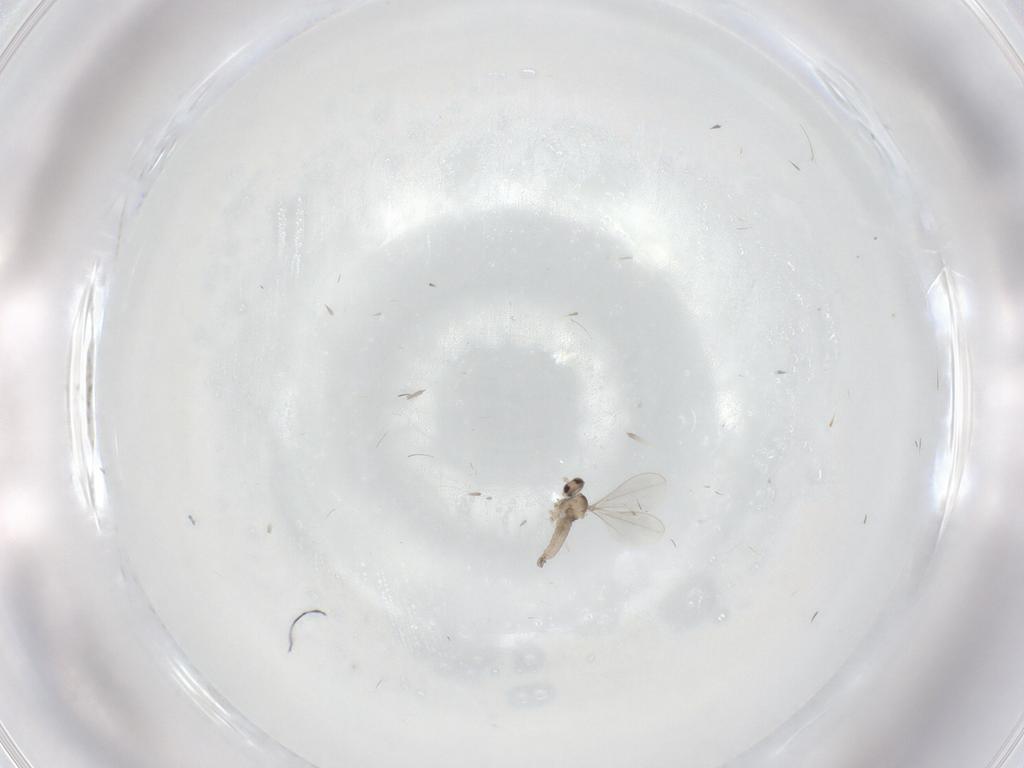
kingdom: Animalia
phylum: Arthropoda
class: Insecta
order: Diptera
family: Cecidomyiidae
